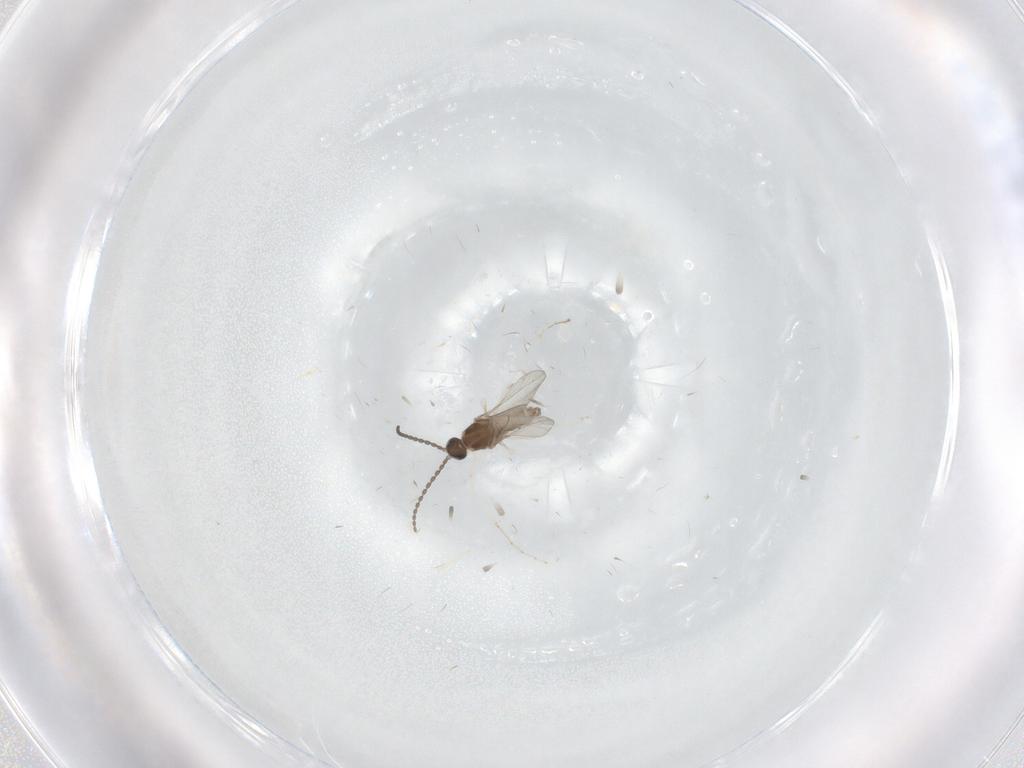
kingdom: Animalia
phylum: Arthropoda
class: Insecta
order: Diptera
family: Cecidomyiidae
